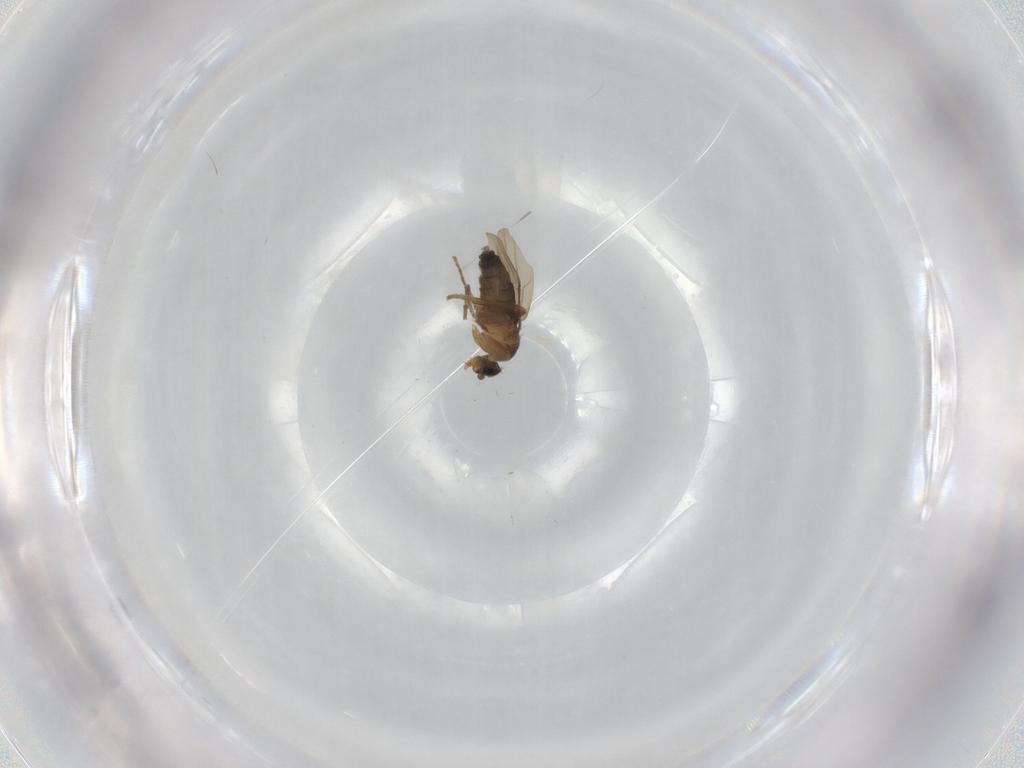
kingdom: Animalia
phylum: Arthropoda
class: Insecta
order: Diptera
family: Phoridae
